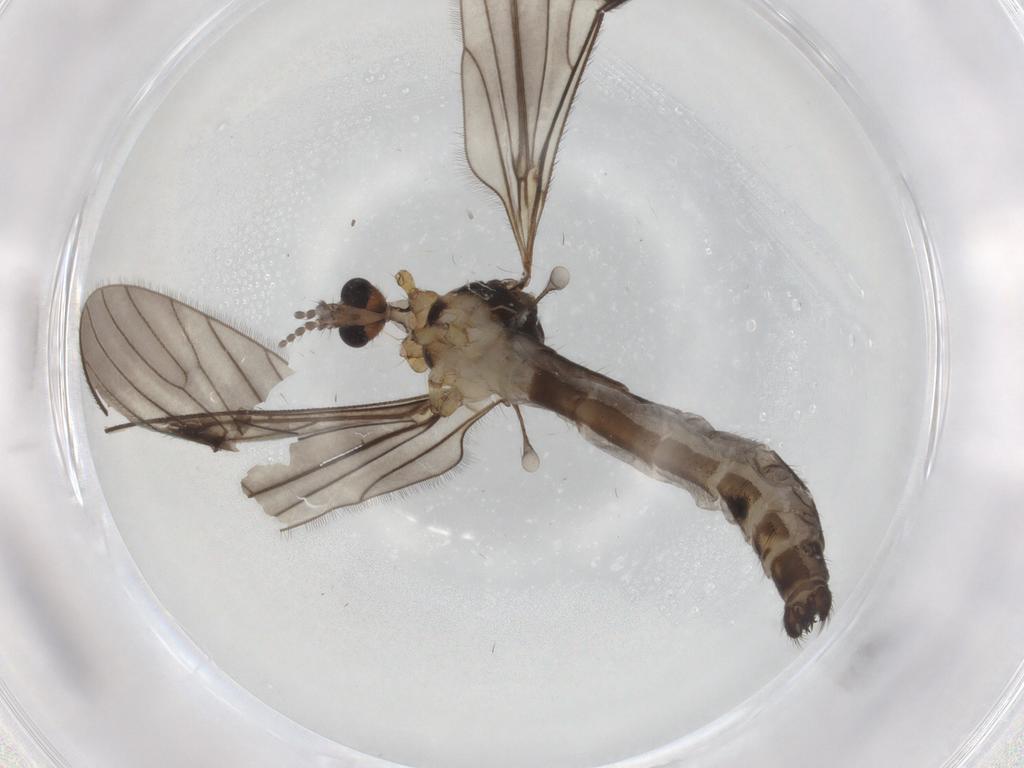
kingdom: Animalia
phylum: Arthropoda
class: Insecta
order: Diptera
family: Limoniidae
